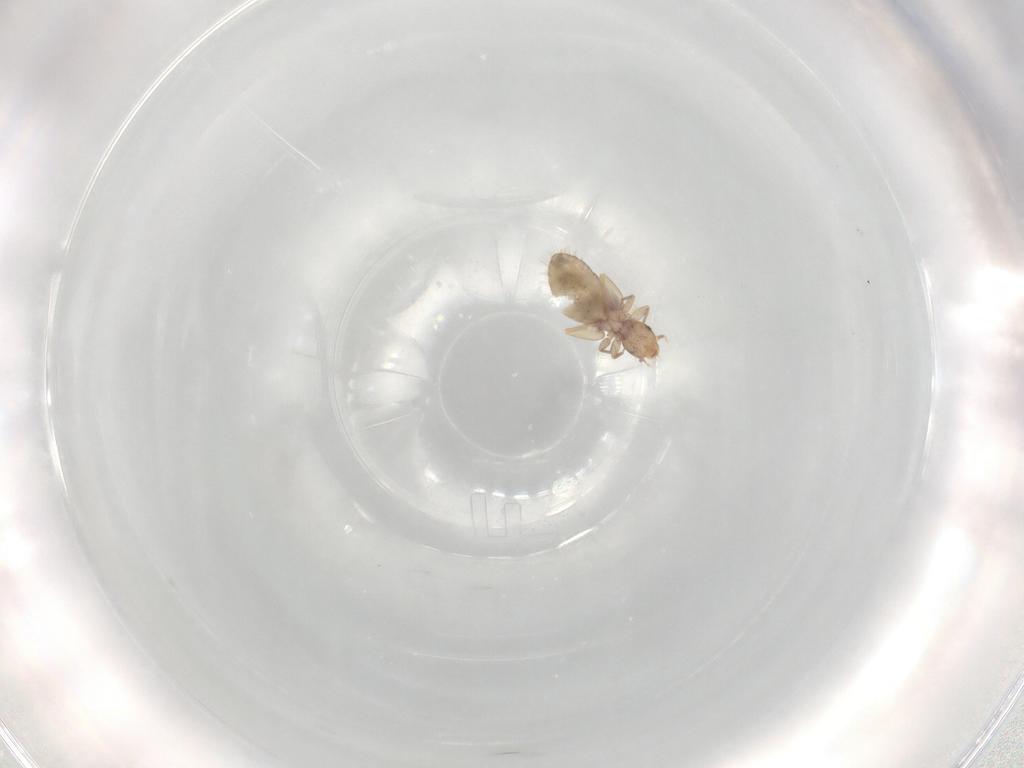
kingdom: Animalia
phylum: Arthropoda
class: Insecta
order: Psocodea
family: Liposcelididae
